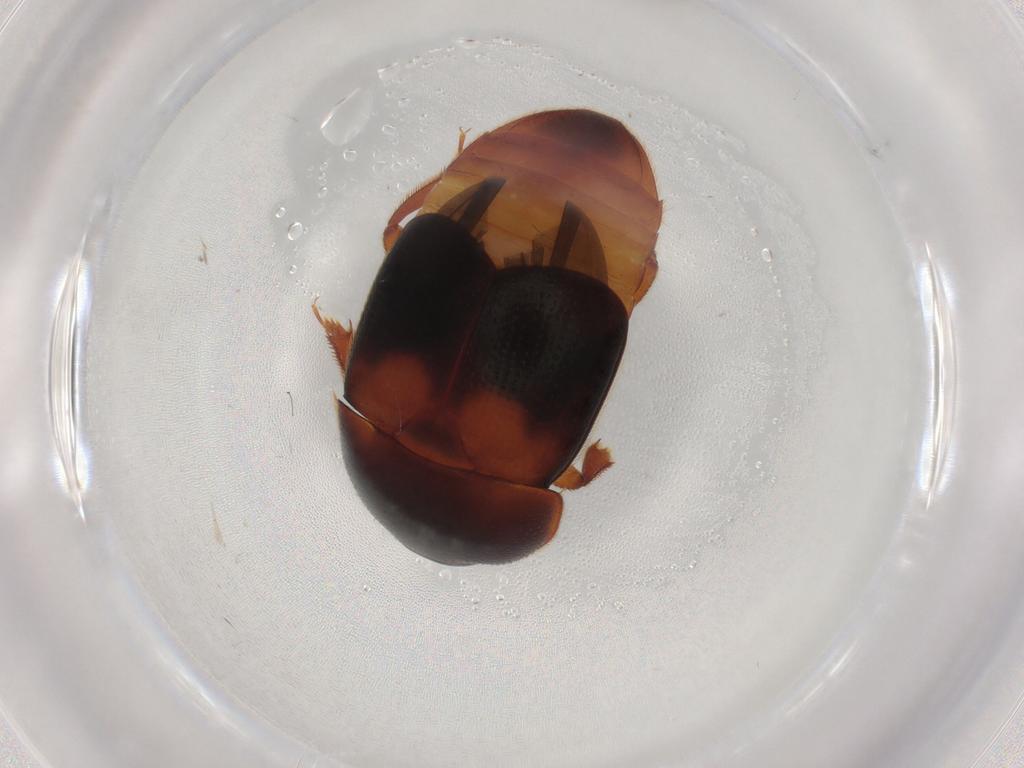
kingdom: Animalia
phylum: Arthropoda
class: Insecta
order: Coleoptera
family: Nitidulidae
